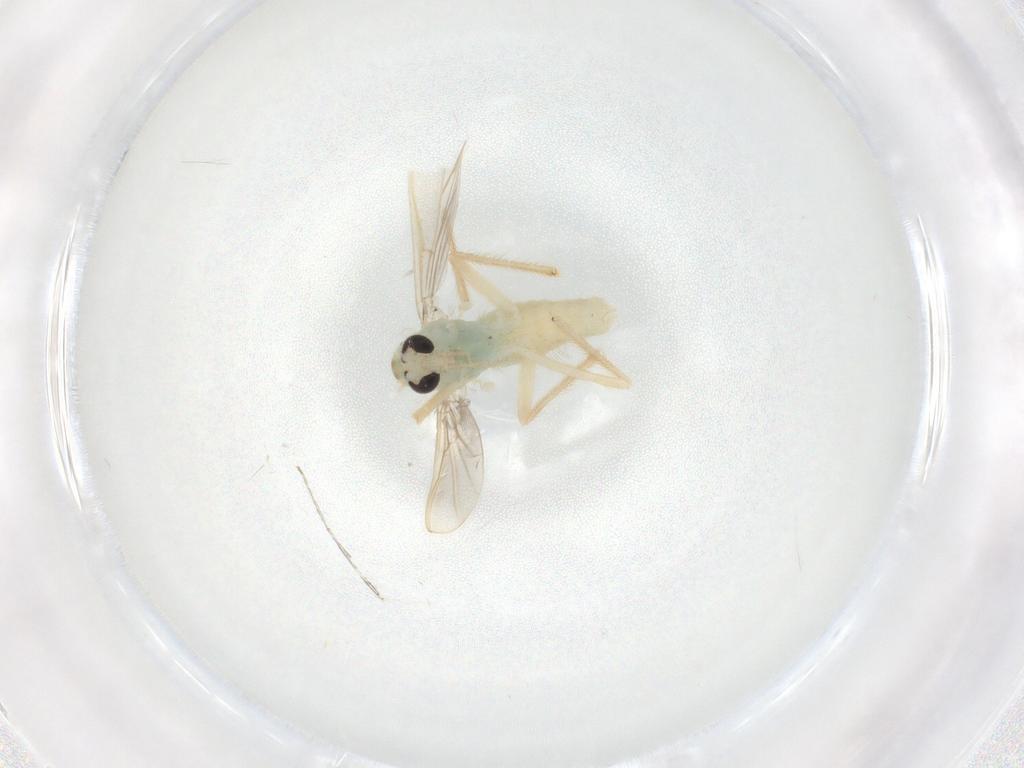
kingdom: Animalia
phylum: Arthropoda
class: Insecta
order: Diptera
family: Chironomidae
